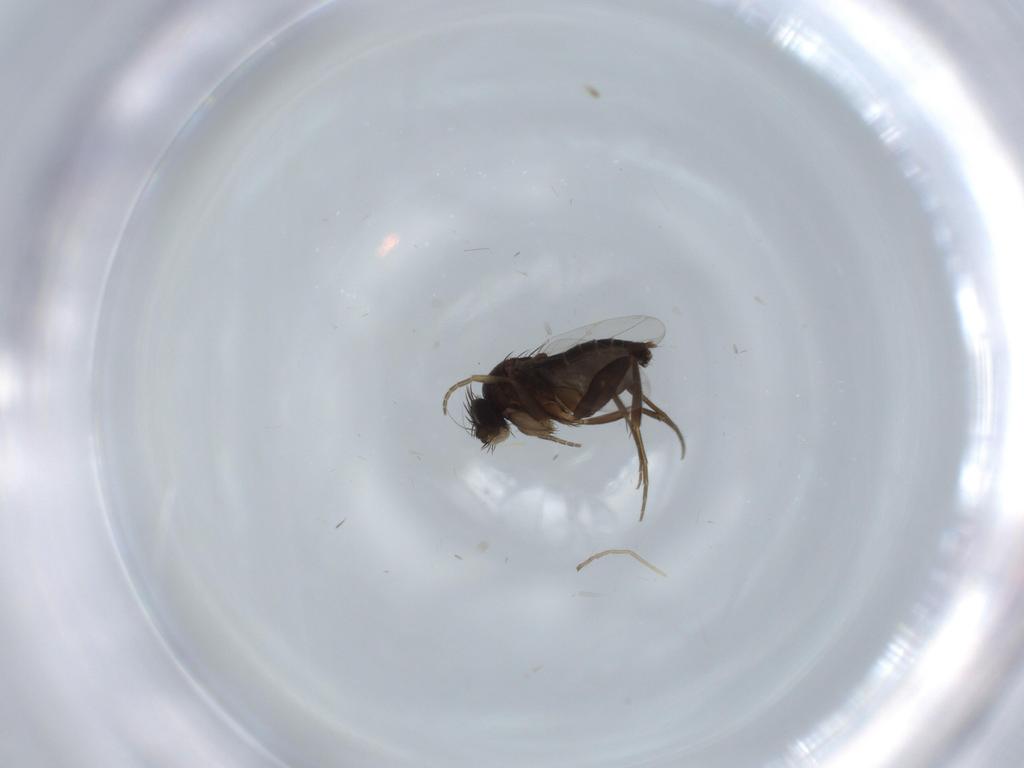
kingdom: Animalia
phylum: Arthropoda
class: Insecta
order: Diptera
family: Phoridae
